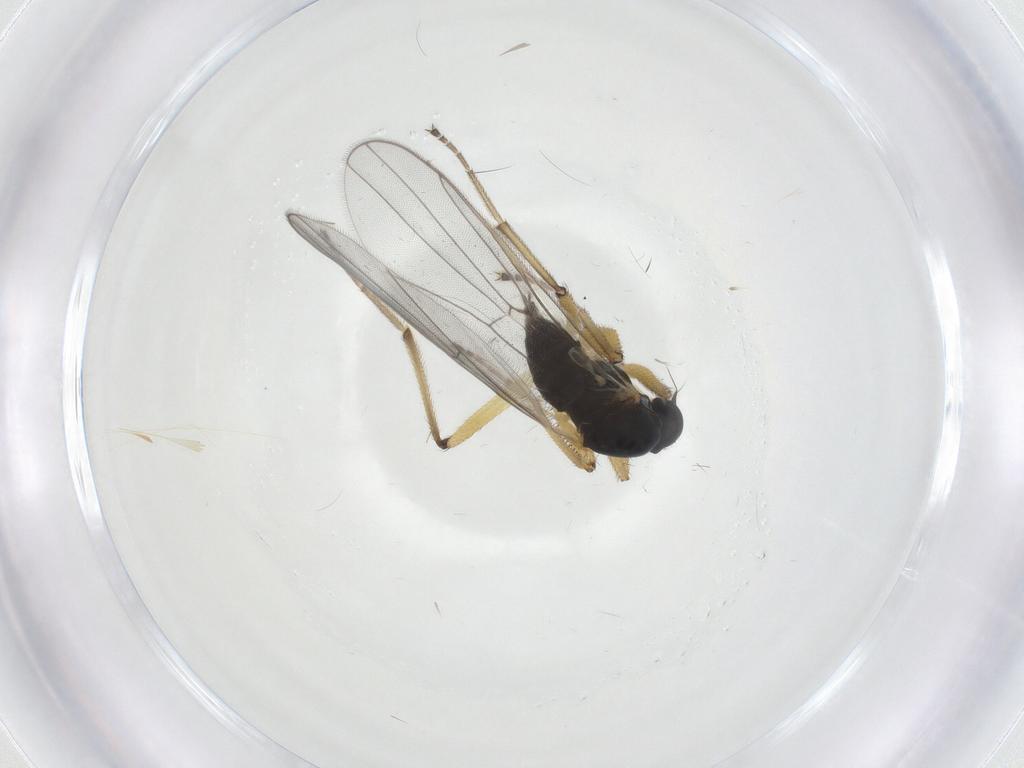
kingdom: Animalia
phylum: Arthropoda
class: Insecta
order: Diptera
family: Hybotidae
